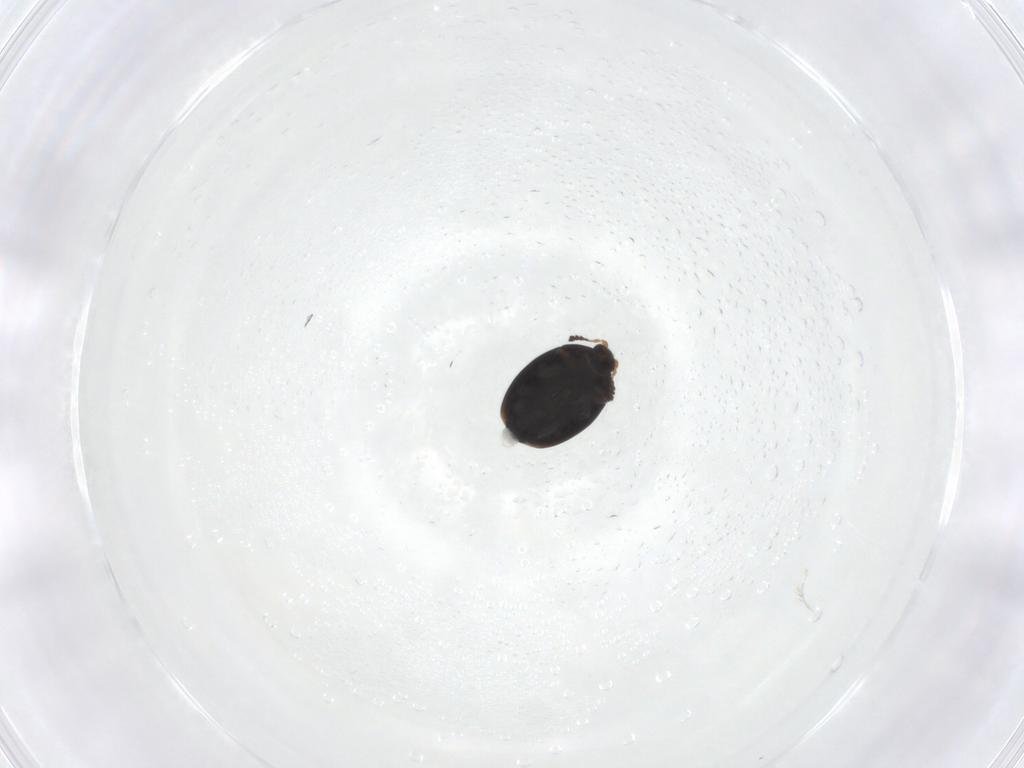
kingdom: Animalia
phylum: Arthropoda
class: Insecta
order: Coleoptera
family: Corylophidae
